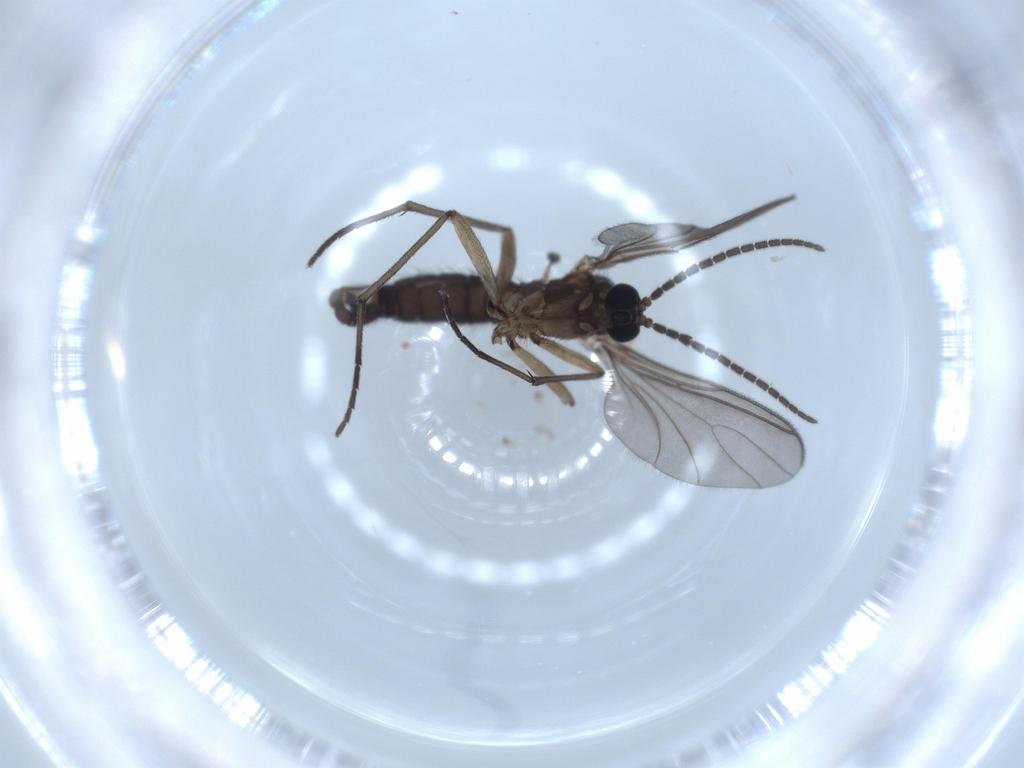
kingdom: Animalia
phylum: Arthropoda
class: Insecta
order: Diptera
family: Sciaridae
